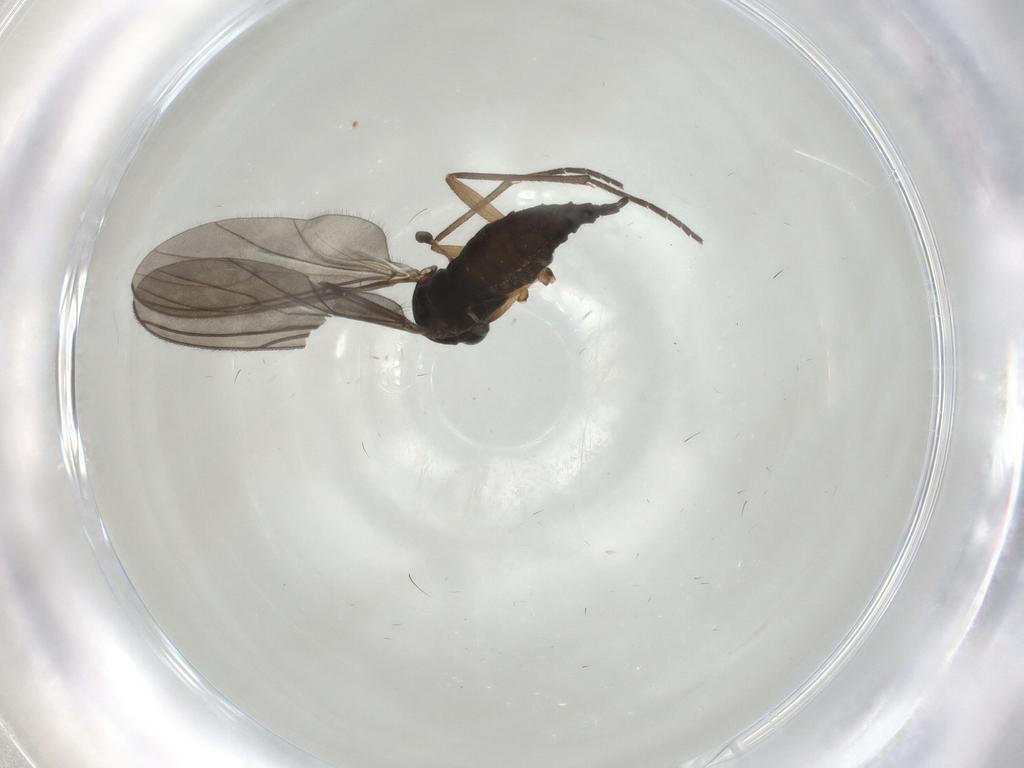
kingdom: Animalia
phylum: Arthropoda
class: Insecta
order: Diptera
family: Sciaridae
